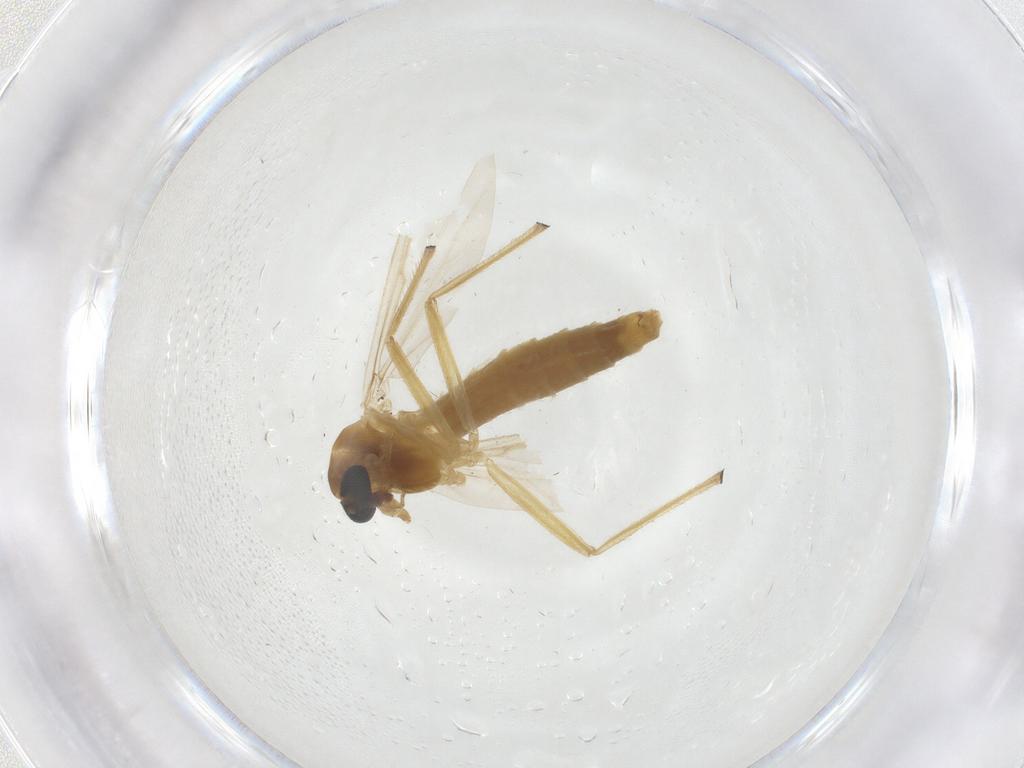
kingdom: Animalia
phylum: Arthropoda
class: Insecta
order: Diptera
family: Chironomidae
